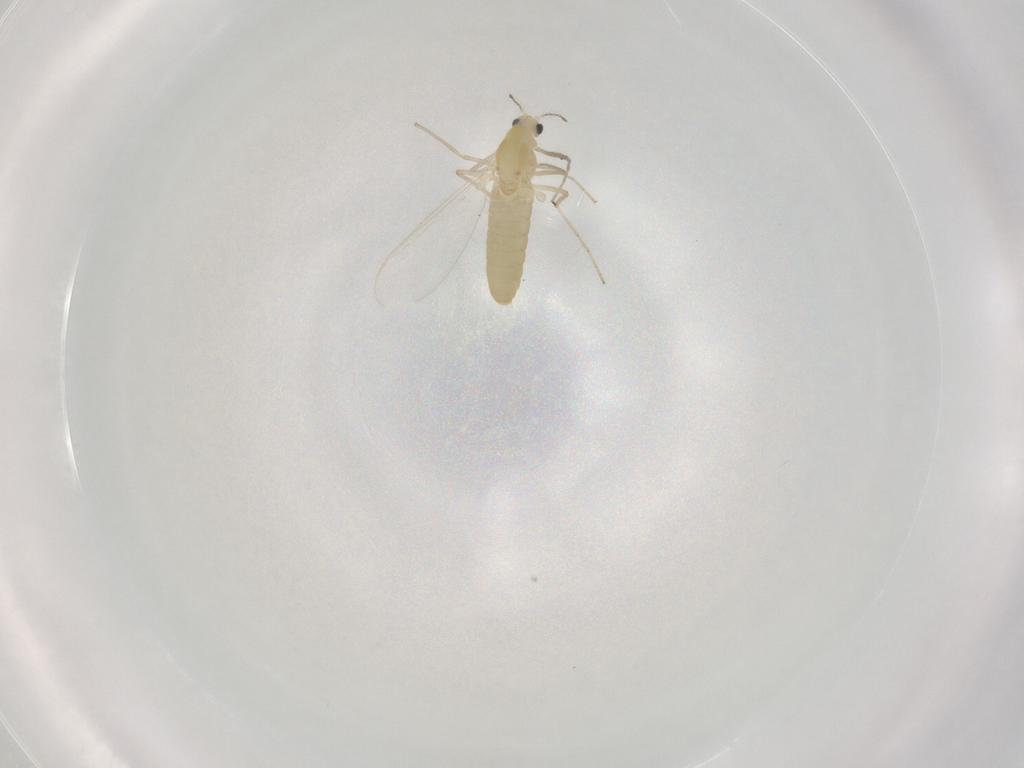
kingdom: Animalia
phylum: Arthropoda
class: Insecta
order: Diptera
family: Chironomidae
